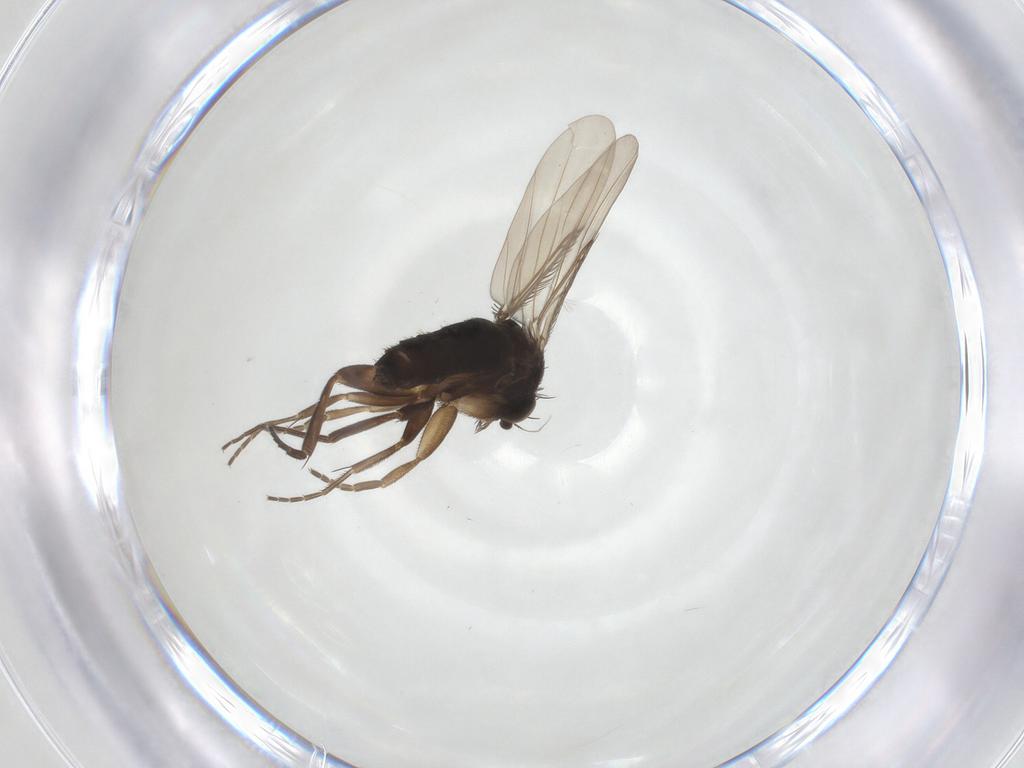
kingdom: Animalia
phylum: Arthropoda
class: Insecta
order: Diptera
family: Phoridae
